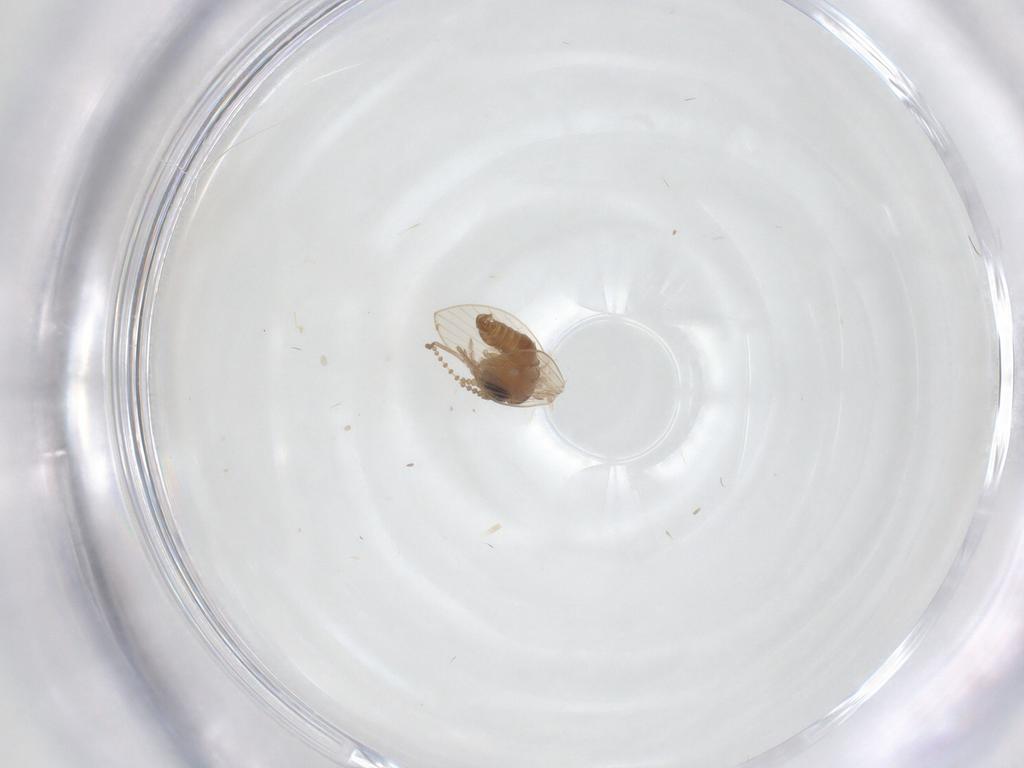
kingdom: Animalia
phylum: Arthropoda
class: Insecta
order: Diptera
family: Psychodidae
